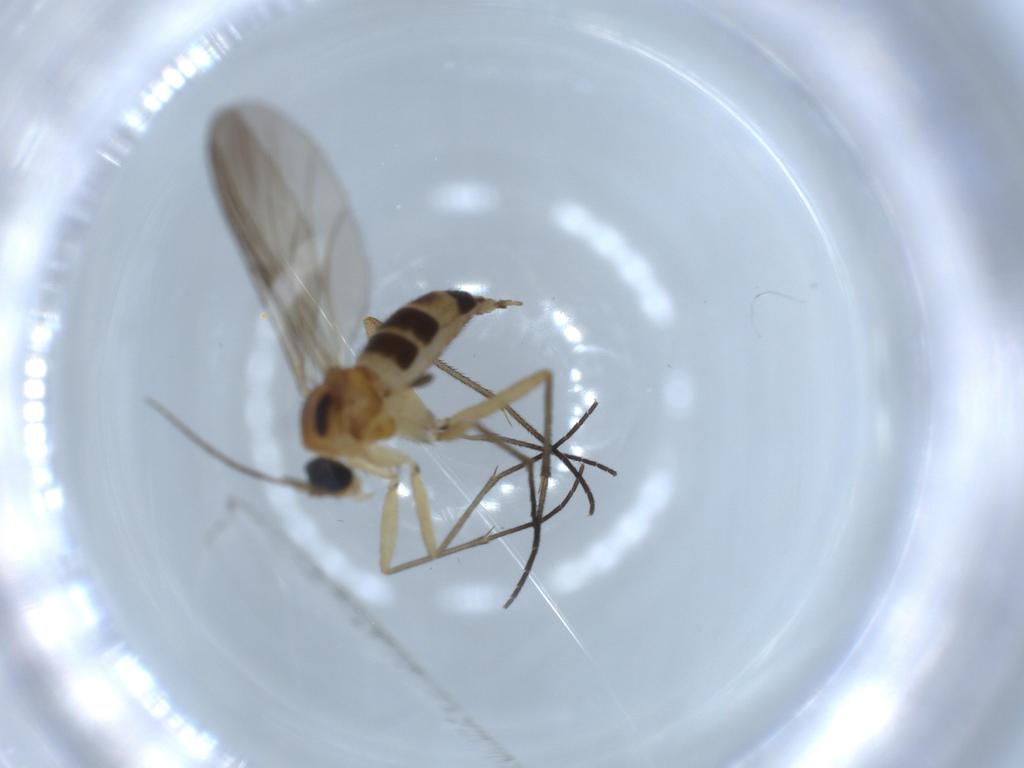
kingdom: Animalia
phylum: Arthropoda
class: Insecta
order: Diptera
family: Sciaridae
